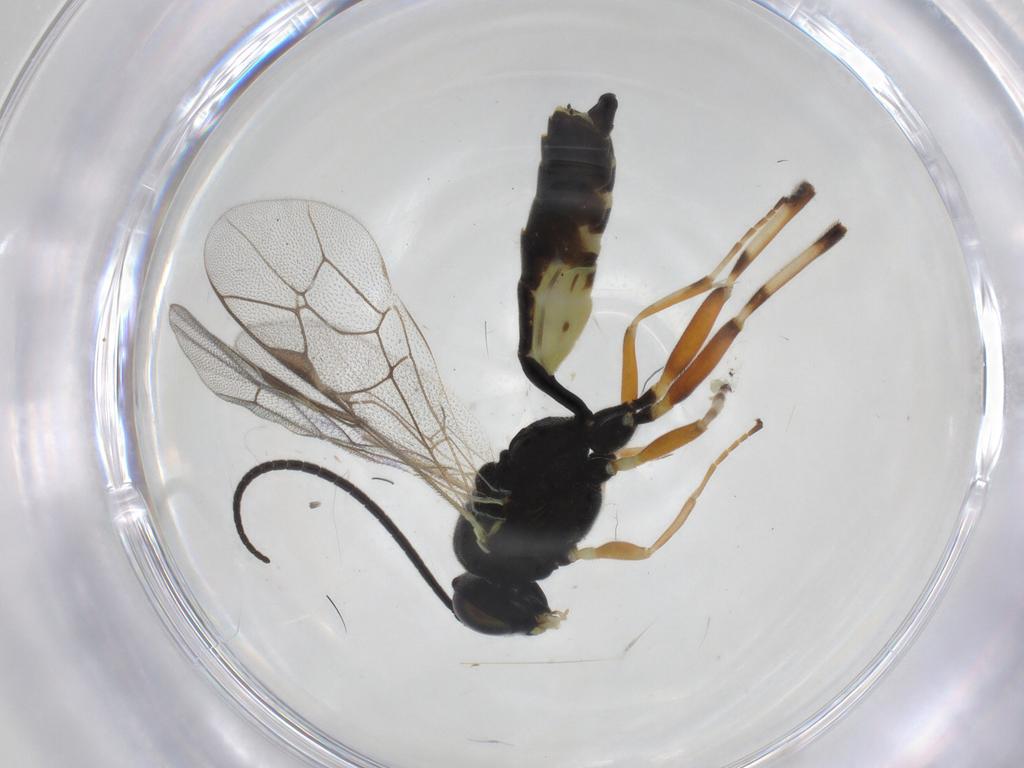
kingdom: Animalia
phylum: Arthropoda
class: Insecta
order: Hymenoptera
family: Ichneumonidae
